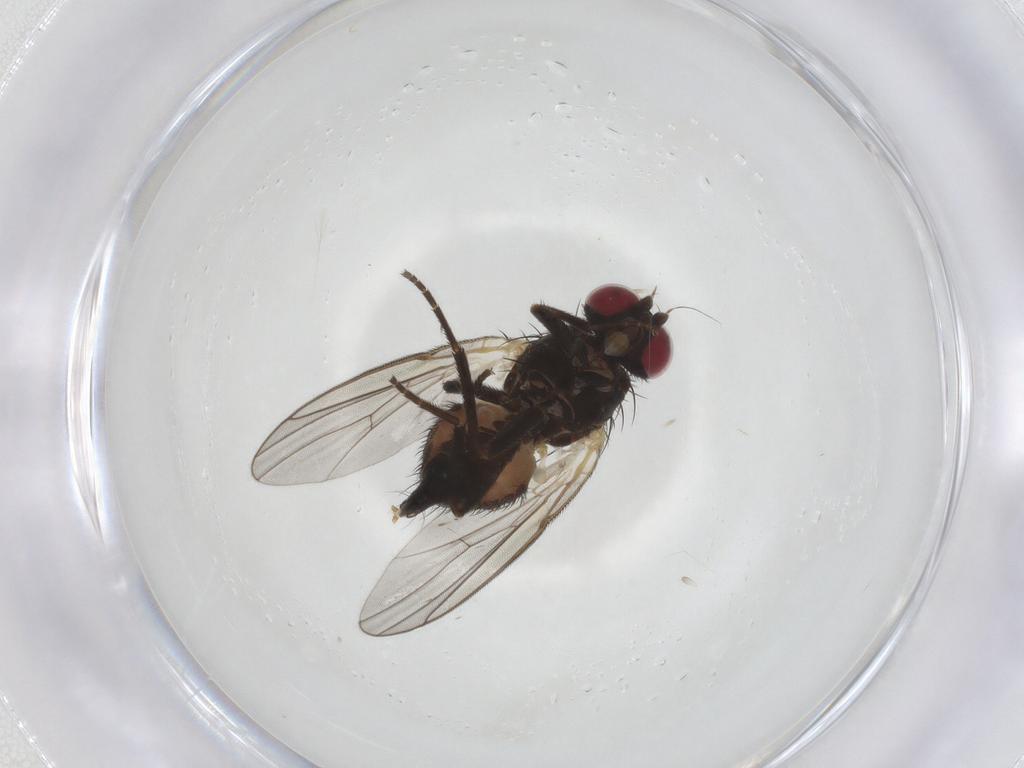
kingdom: Animalia
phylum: Arthropoda
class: Insecta
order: Diptera
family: Agromyzidae
